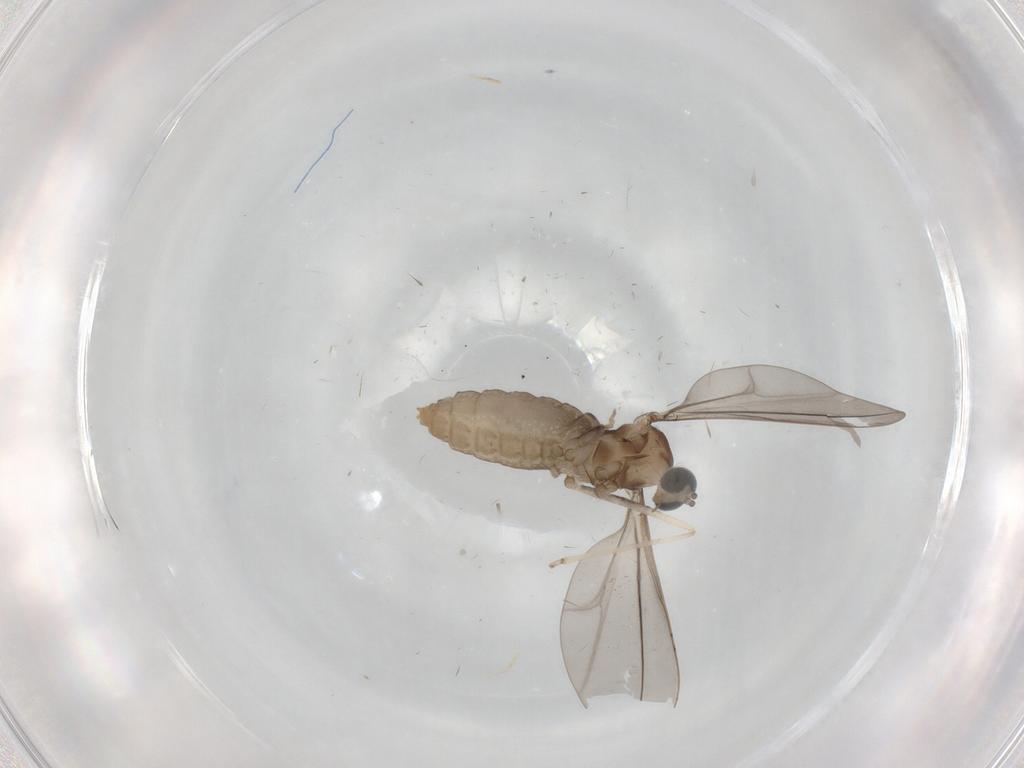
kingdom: Animalia
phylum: Arthropoda
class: Insecta
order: Diptera
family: Cecidomyiidae
